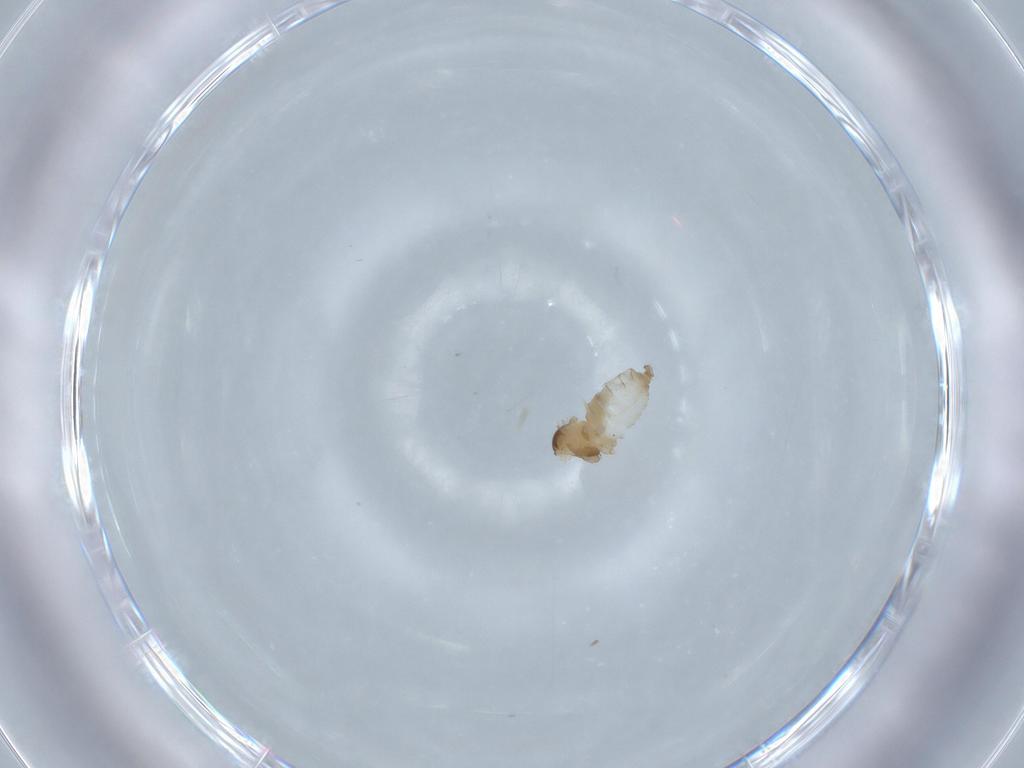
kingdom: Animalia
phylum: Arthropoda
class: Insecta
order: Diptera
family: Cecidomyiidae
